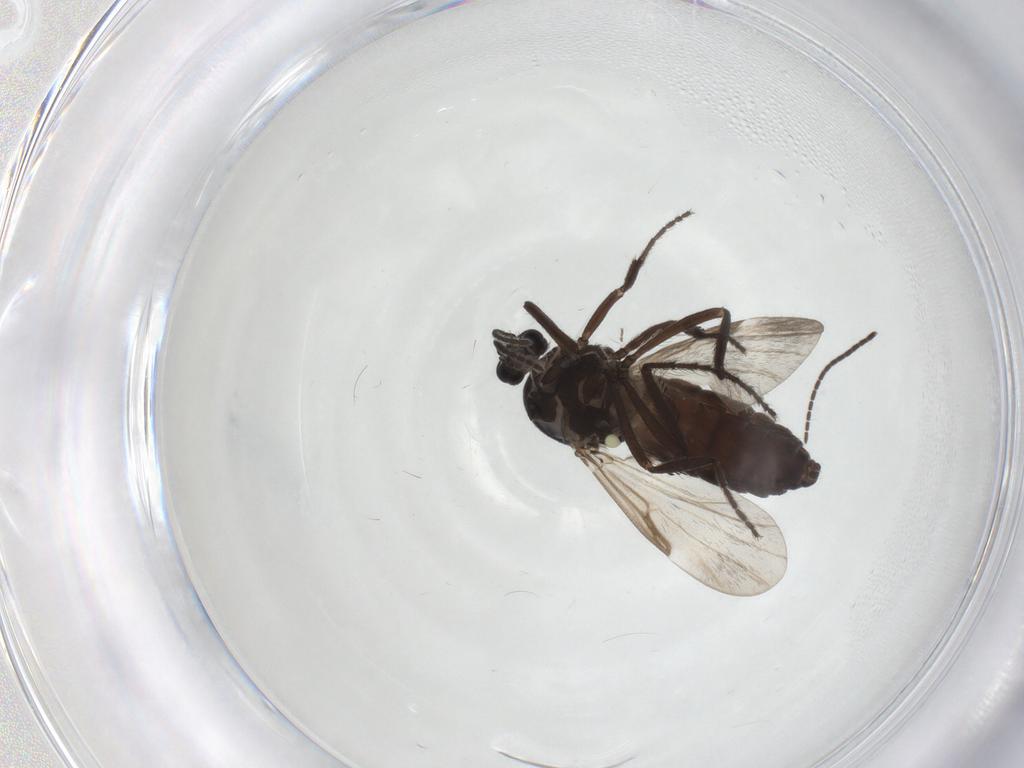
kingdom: Animalia
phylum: Arthropoda
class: Insecta
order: Diptera
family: Sciaridae
